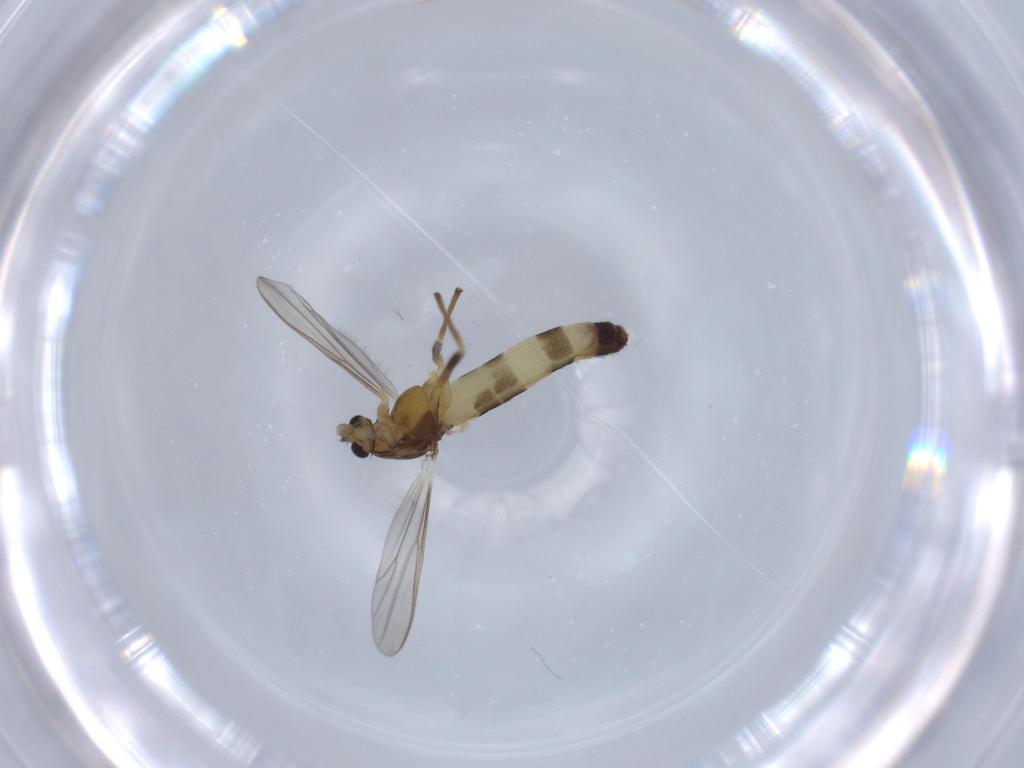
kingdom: Animalia
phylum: Arthropoda
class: Insecta
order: Diptera
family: Chironomidae
